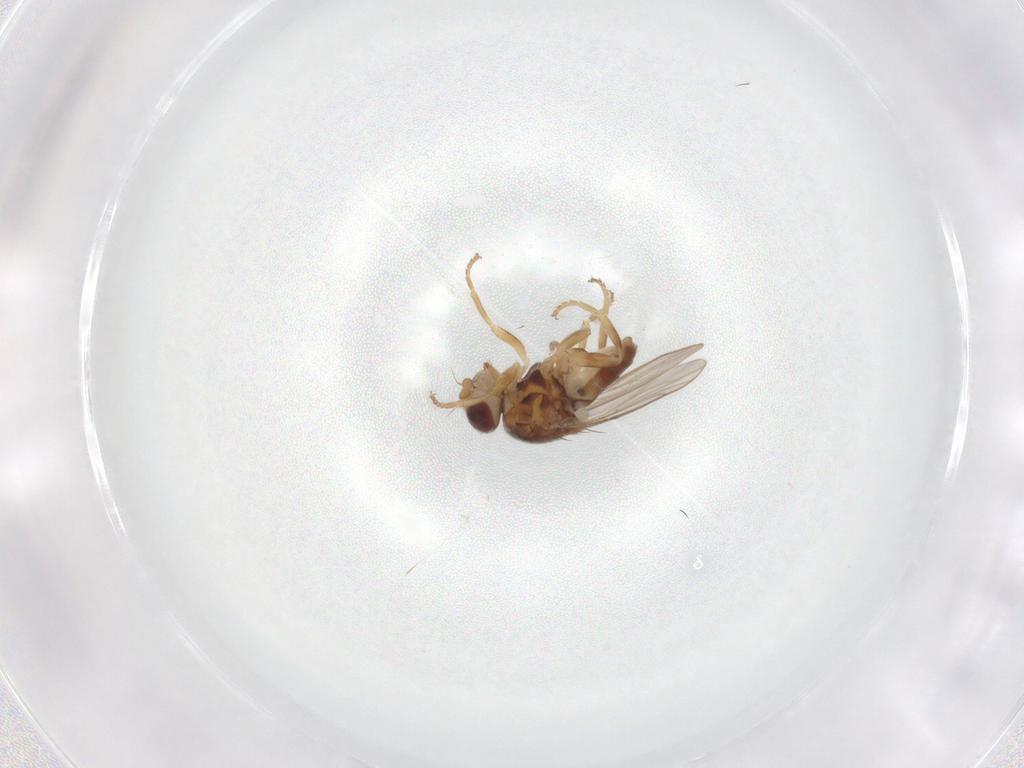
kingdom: Animalia
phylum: Arthropoda
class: Insecta
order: Diptera
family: Chloropidae
